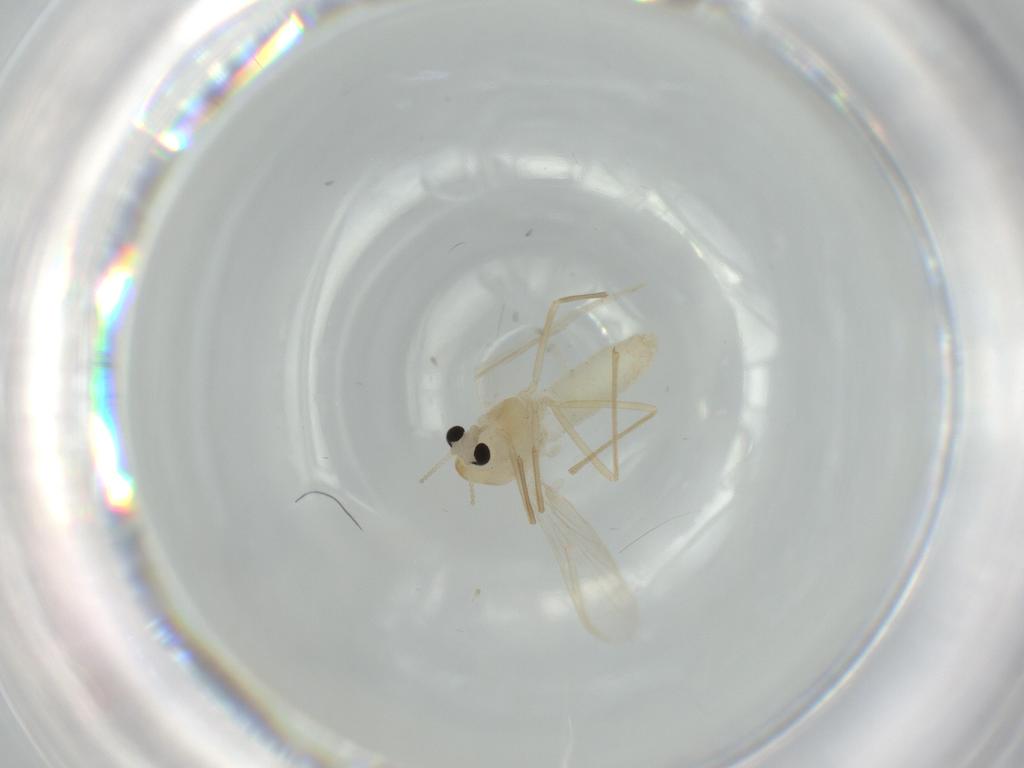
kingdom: Animalia
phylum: Arthropoda
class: Insecta
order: Diptera
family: Chironomidae
